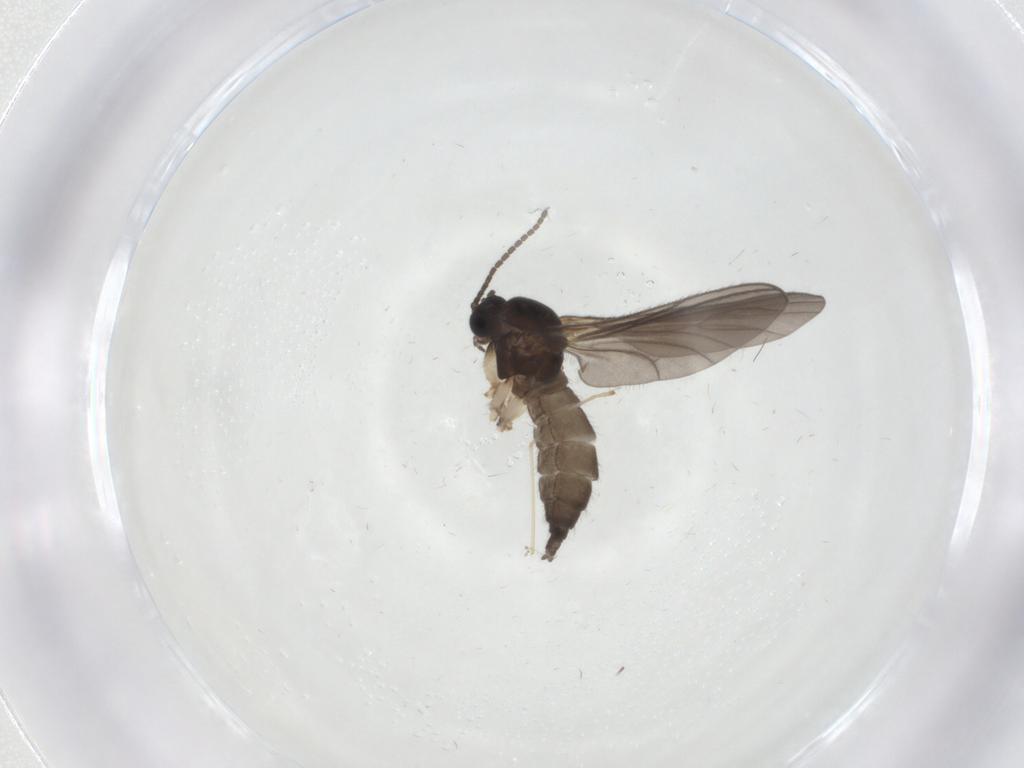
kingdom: Animalia
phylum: Arthropoda
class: Insecta
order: Diptera
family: Sciaridae
